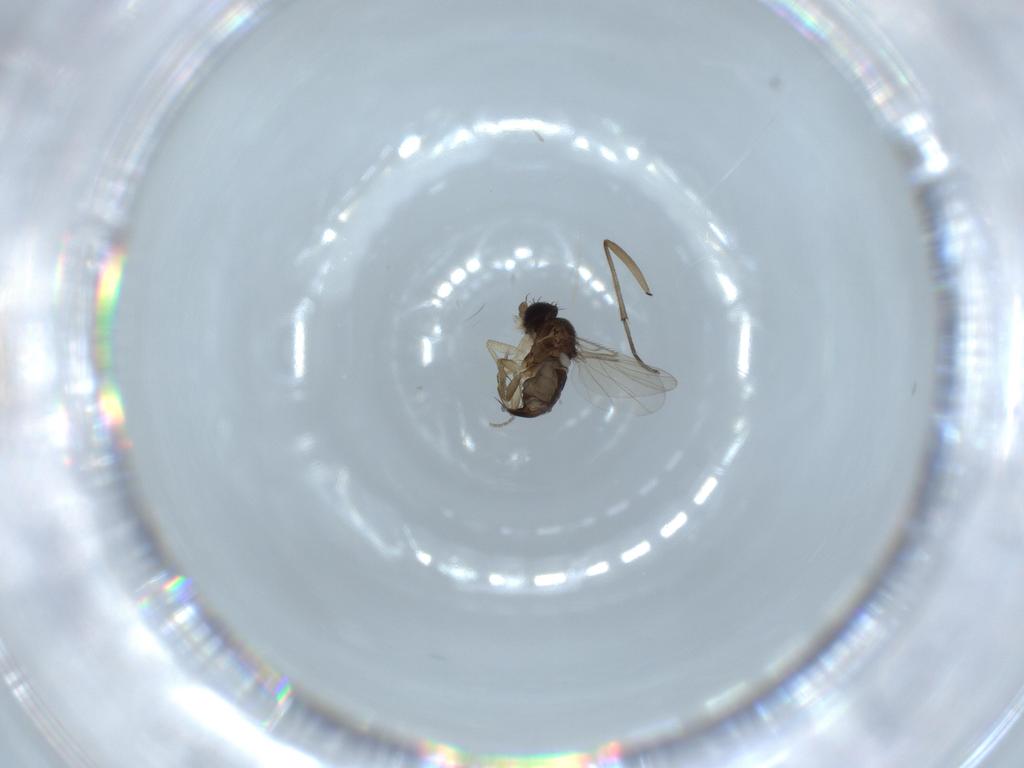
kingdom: Animalia
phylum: Arthropoda
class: Insecta
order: Diptera
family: Phoridae
